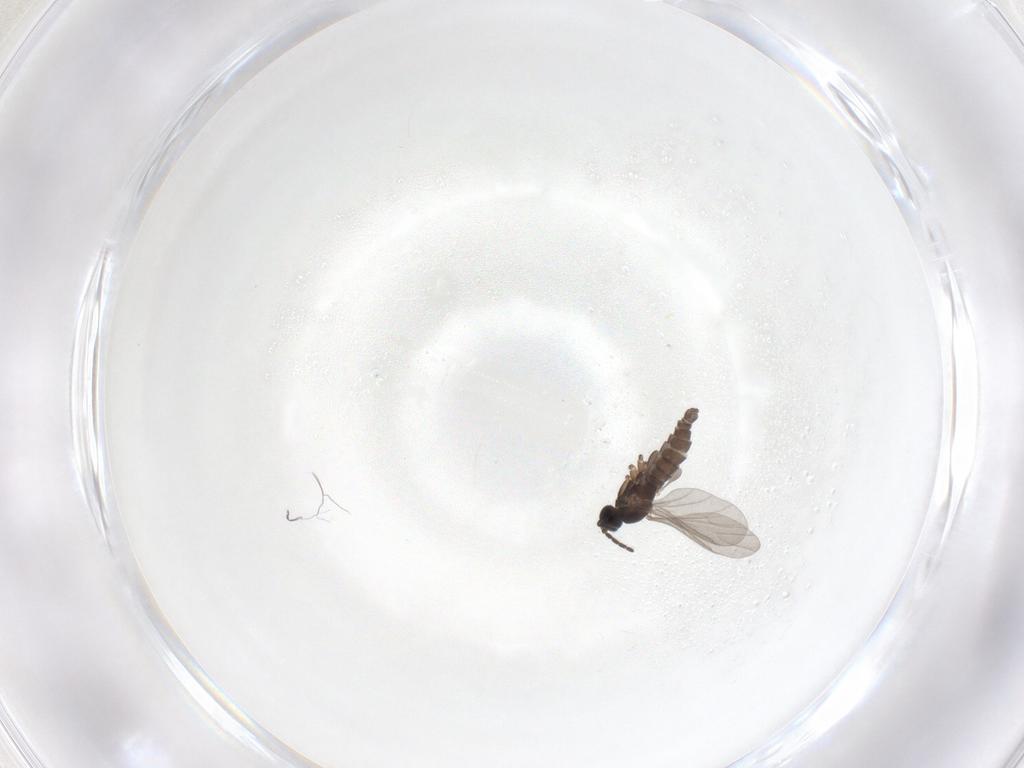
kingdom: Animalia
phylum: Arthropoda
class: Insecta
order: Diptera
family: Sciaridae
